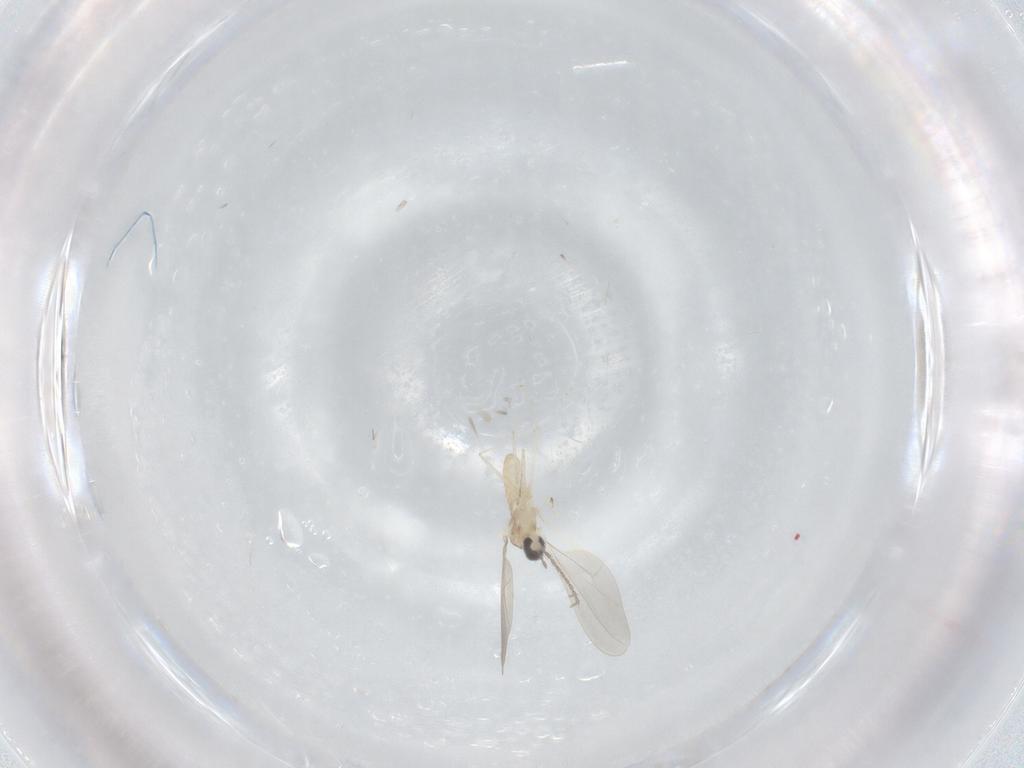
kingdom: Animalia
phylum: Arthropoda
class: Insecta
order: Diptera
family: Cecidomyiidae
